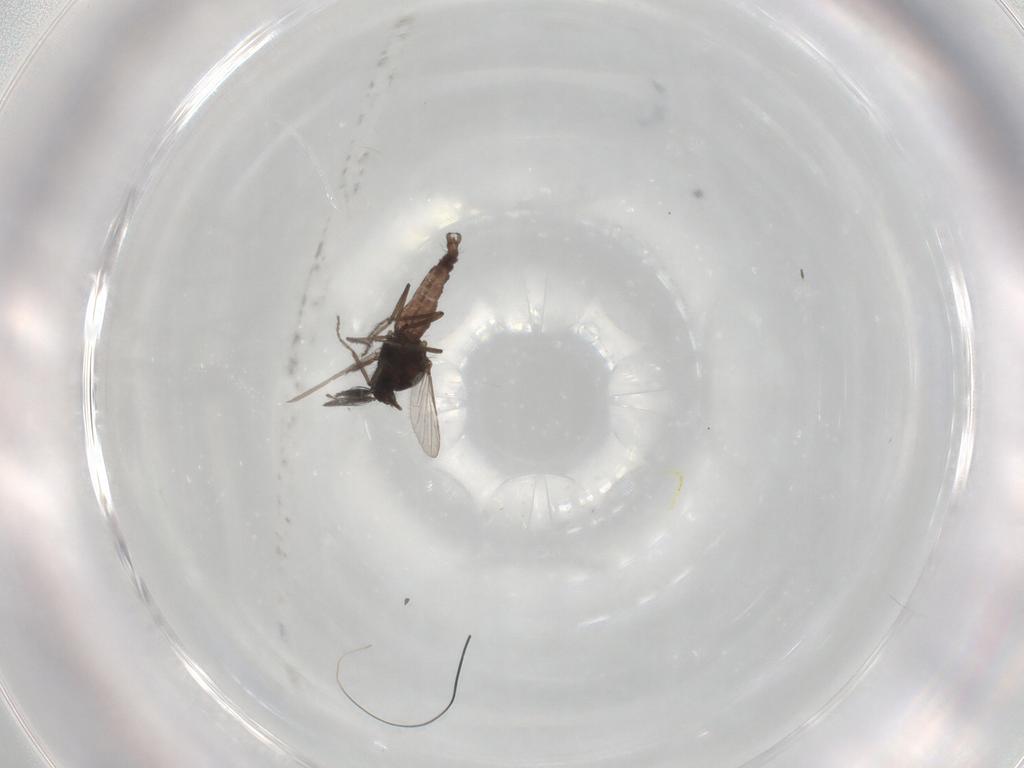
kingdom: Animalia
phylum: Arthropoda
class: Insecta
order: Diptera
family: Ceratopogonidae
